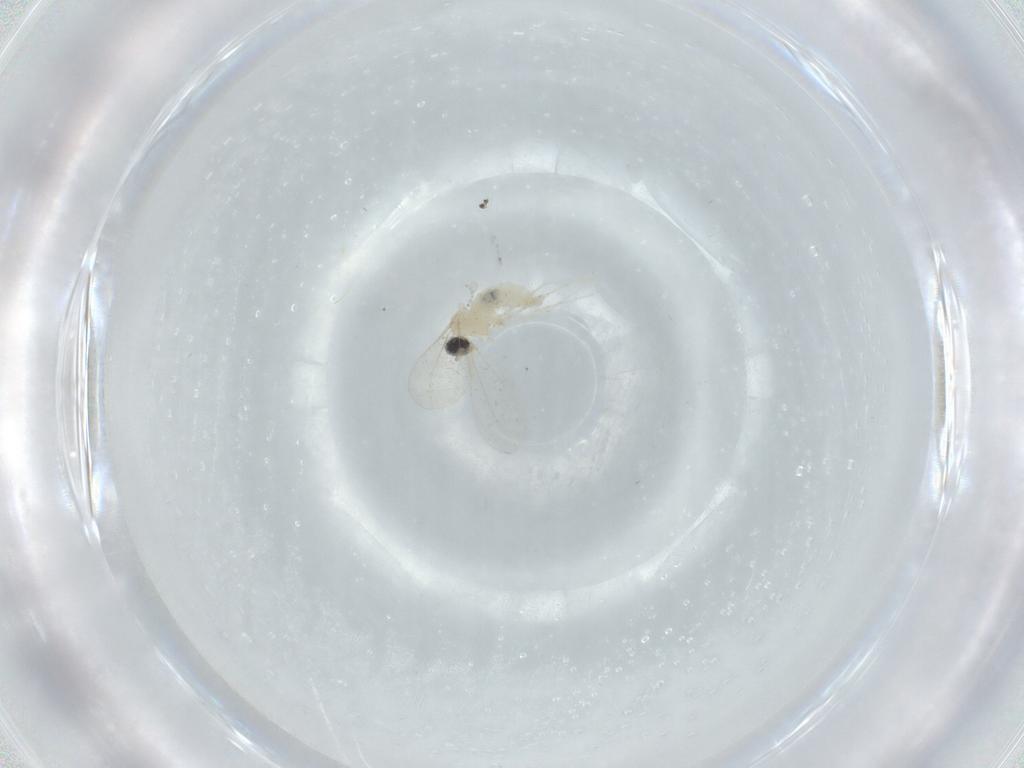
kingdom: Animalia
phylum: Arthropoda
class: Insecta
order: Diptera
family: Cecidomyiidae
